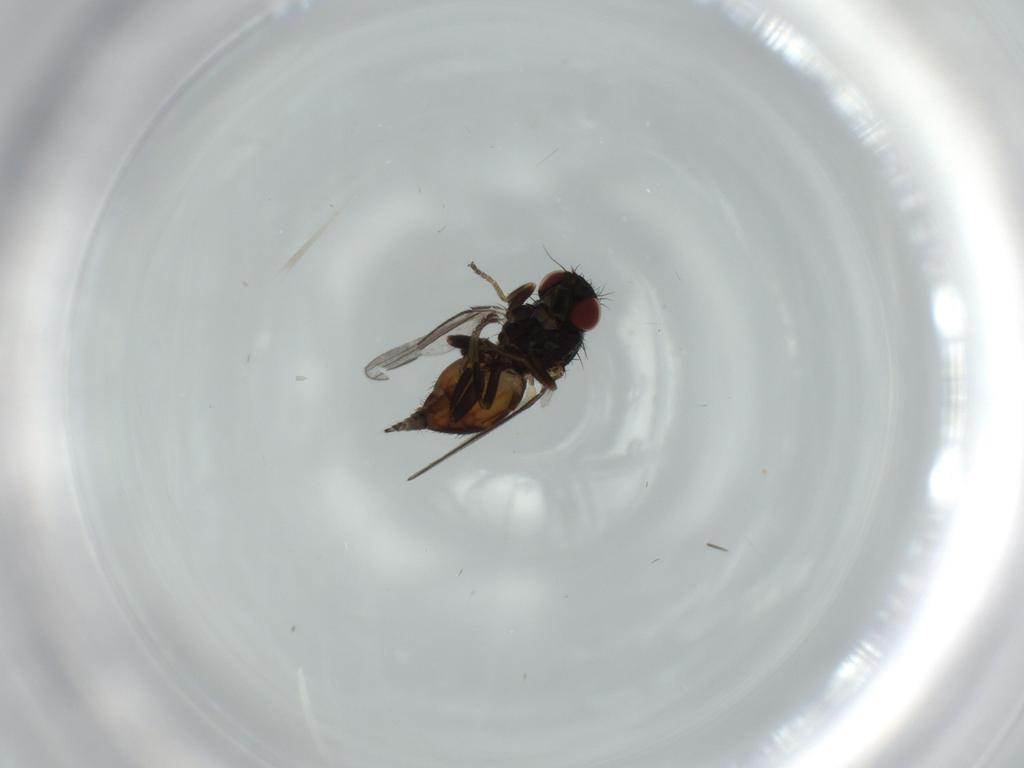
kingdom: Animalia
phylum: Arthropoda
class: Insecta
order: Diptera
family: Milichiidae
